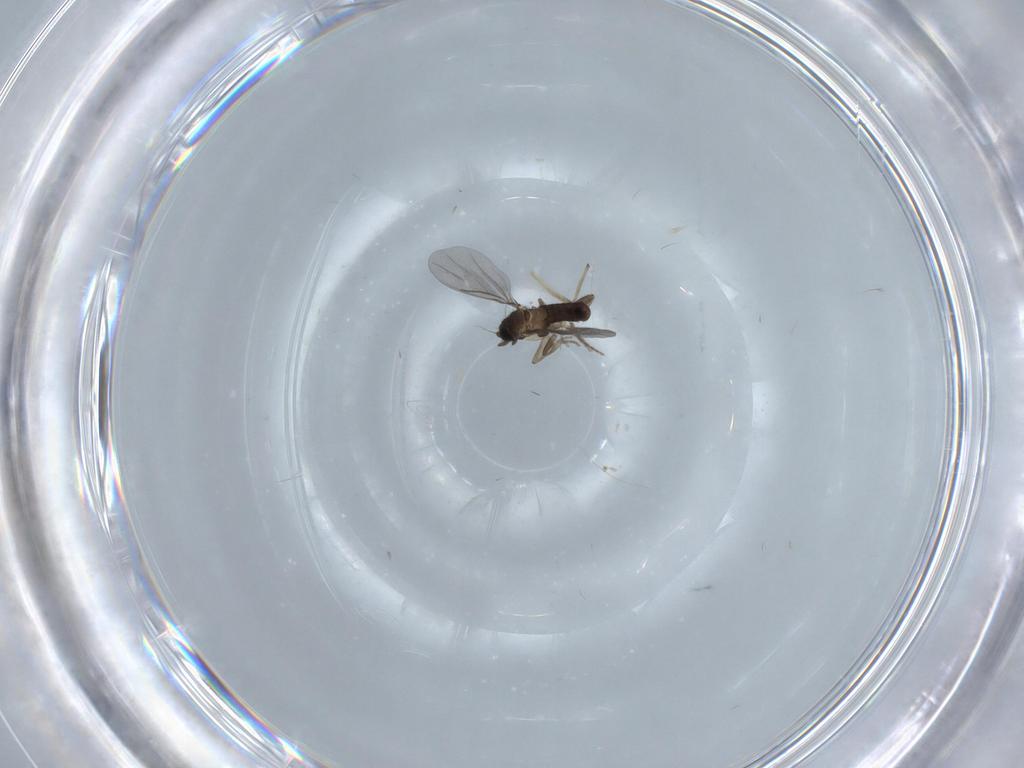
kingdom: Animalia
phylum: Arthropoda
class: Insecta
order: Diptera
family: Chironomidae
